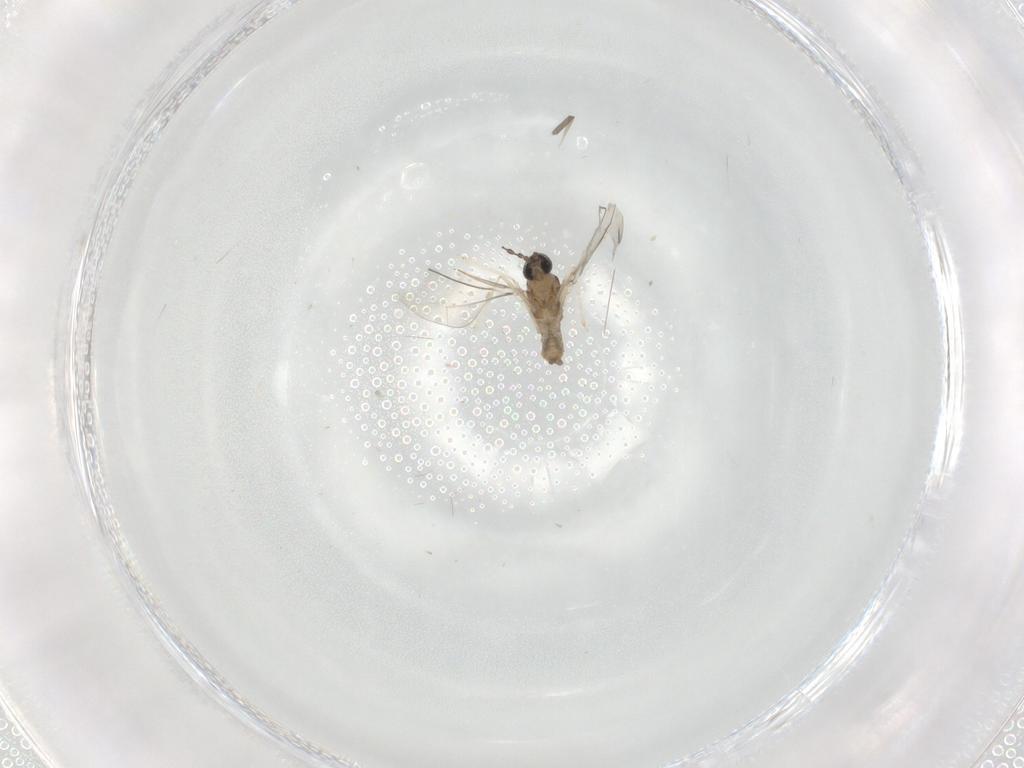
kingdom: Animalia
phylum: Arthropoda
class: Insecta
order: Diptera
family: Cecidomyiidae
